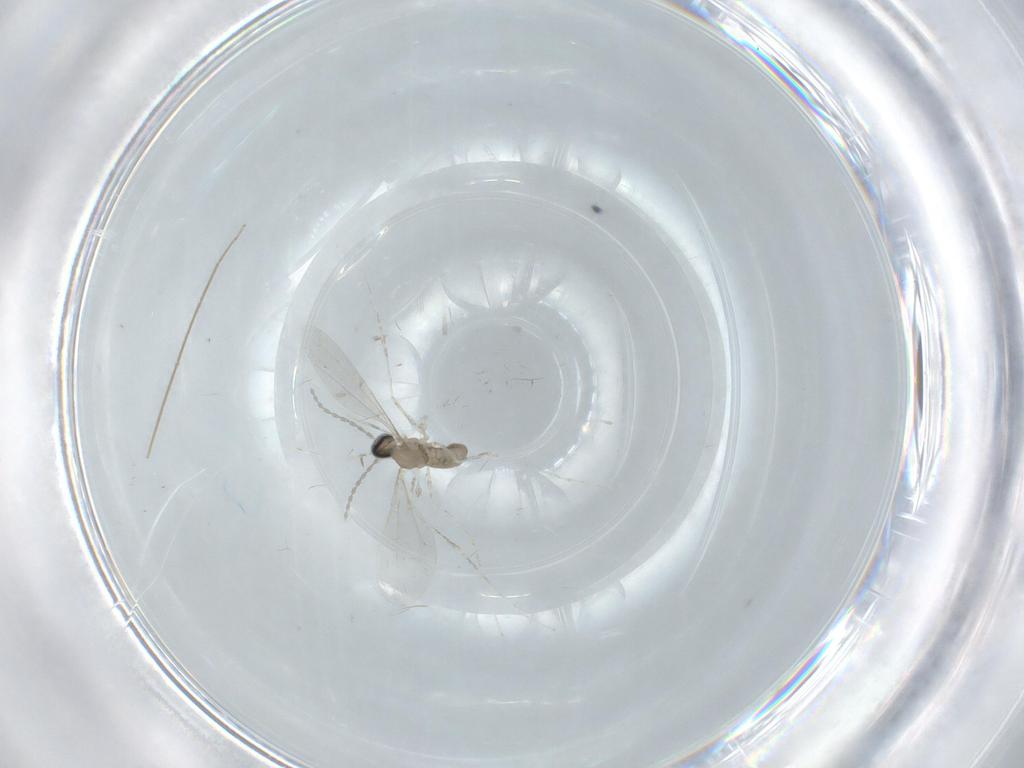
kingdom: Animalia
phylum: Arthropoda
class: Insecta
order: Diptera
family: Cecidomyiidae
